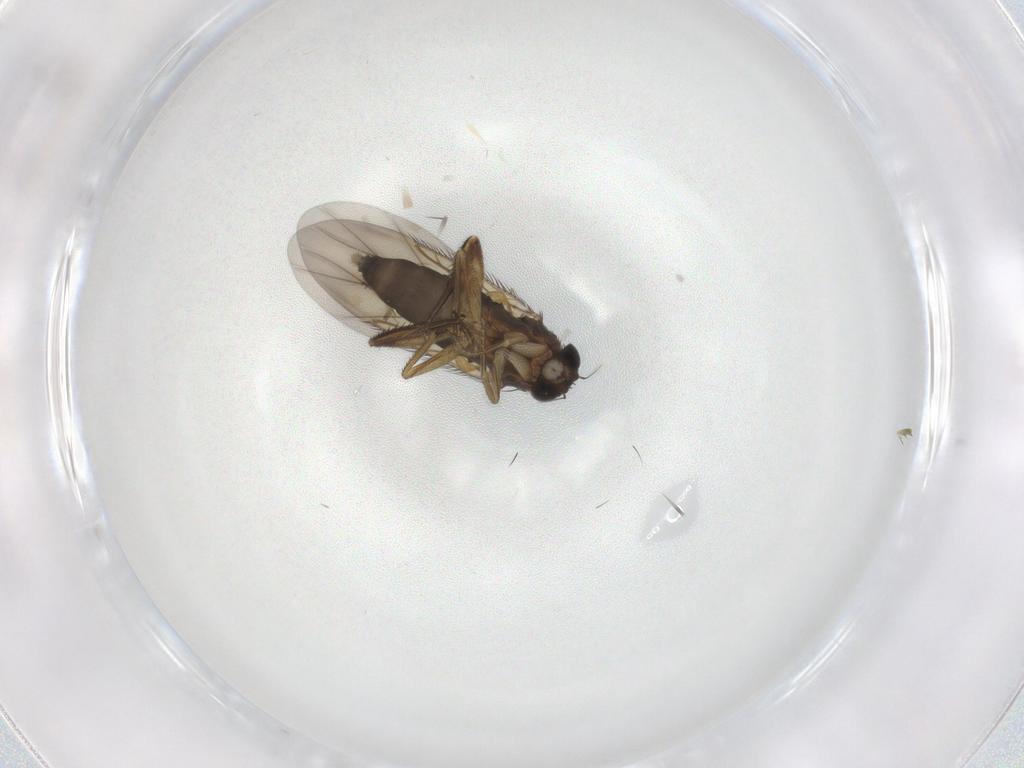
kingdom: Animalia
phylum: Arthropoda
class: Insecta
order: Diptera
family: Phoridae
